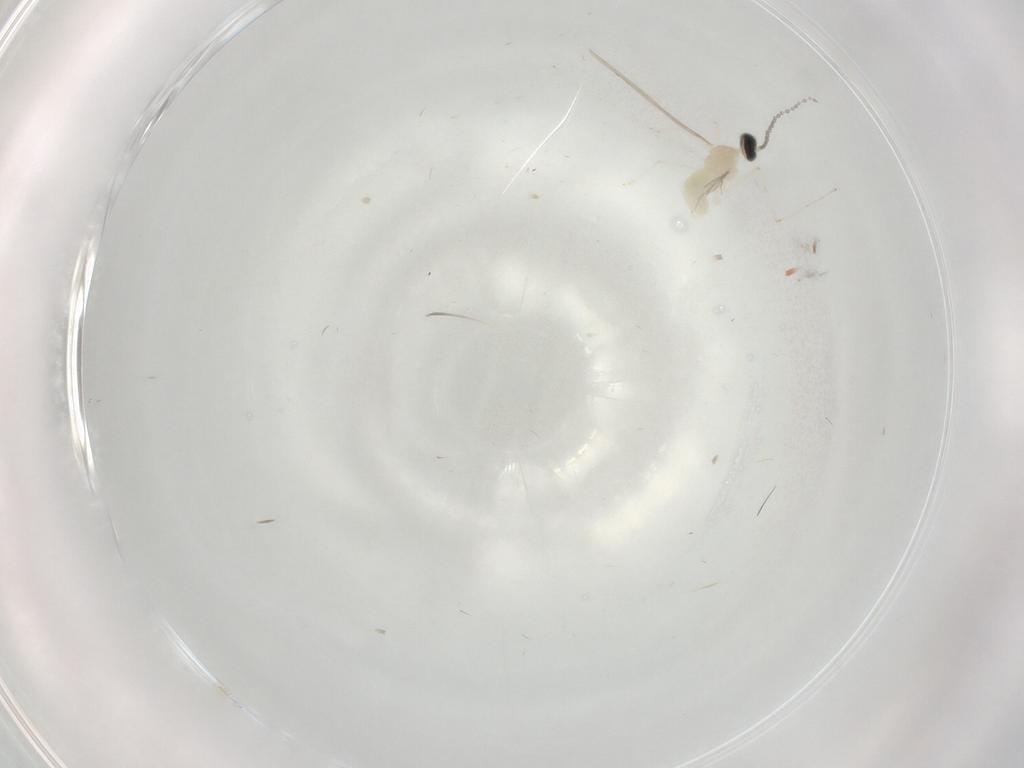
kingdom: Animalia
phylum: Arthropoda
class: Insecta
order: Diptera
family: Cecidomyiidae
